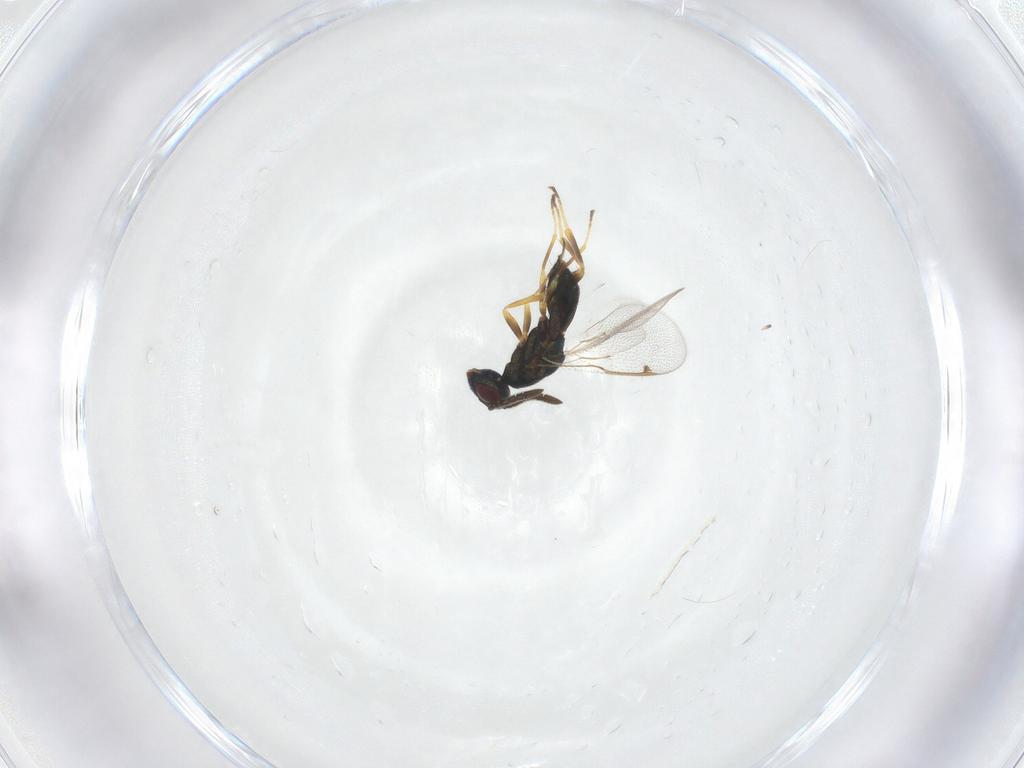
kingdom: Animalia
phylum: Arthropoda
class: Insecta
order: Hymenoptera
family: Torymidae
